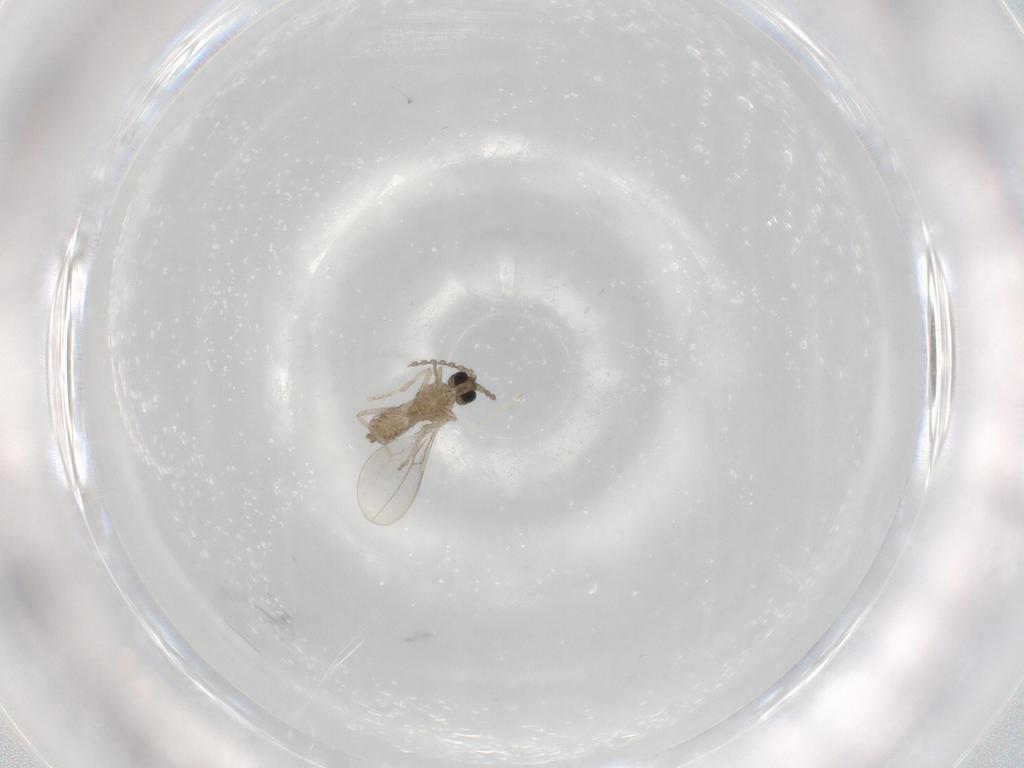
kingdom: Animalia
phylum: Arthropoda
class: Insecta
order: Diptera
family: Cecidomyiidae
